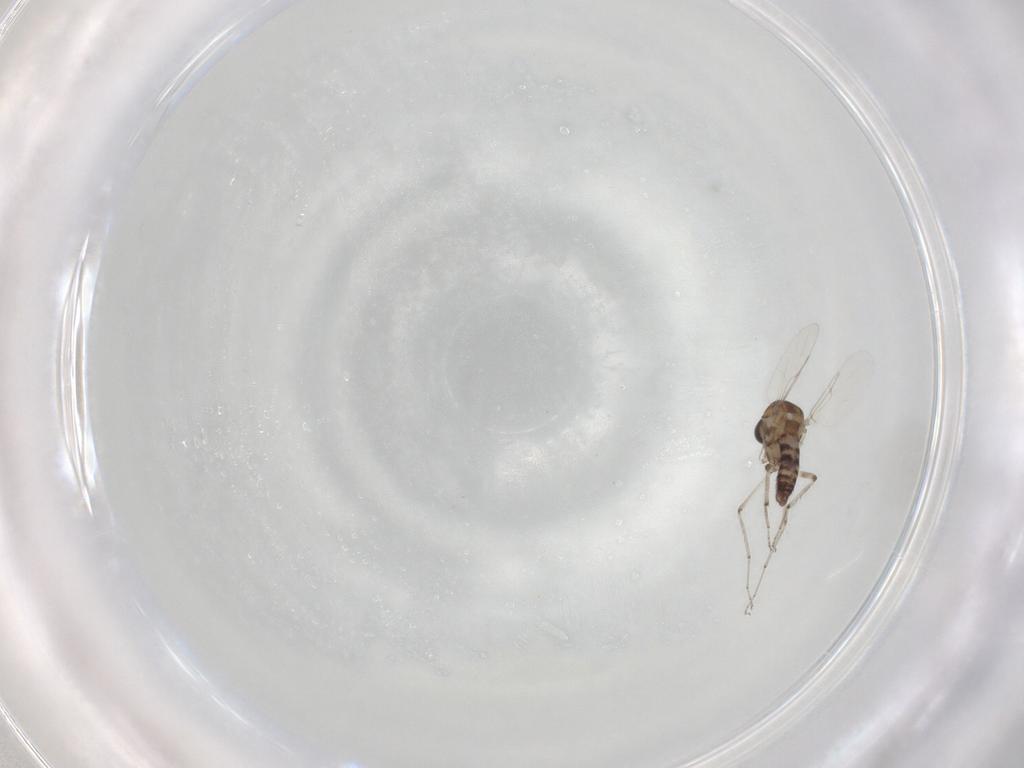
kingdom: Animalia
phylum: Arthropoda
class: Insecta
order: Diptera
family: Ceratopogonidae
